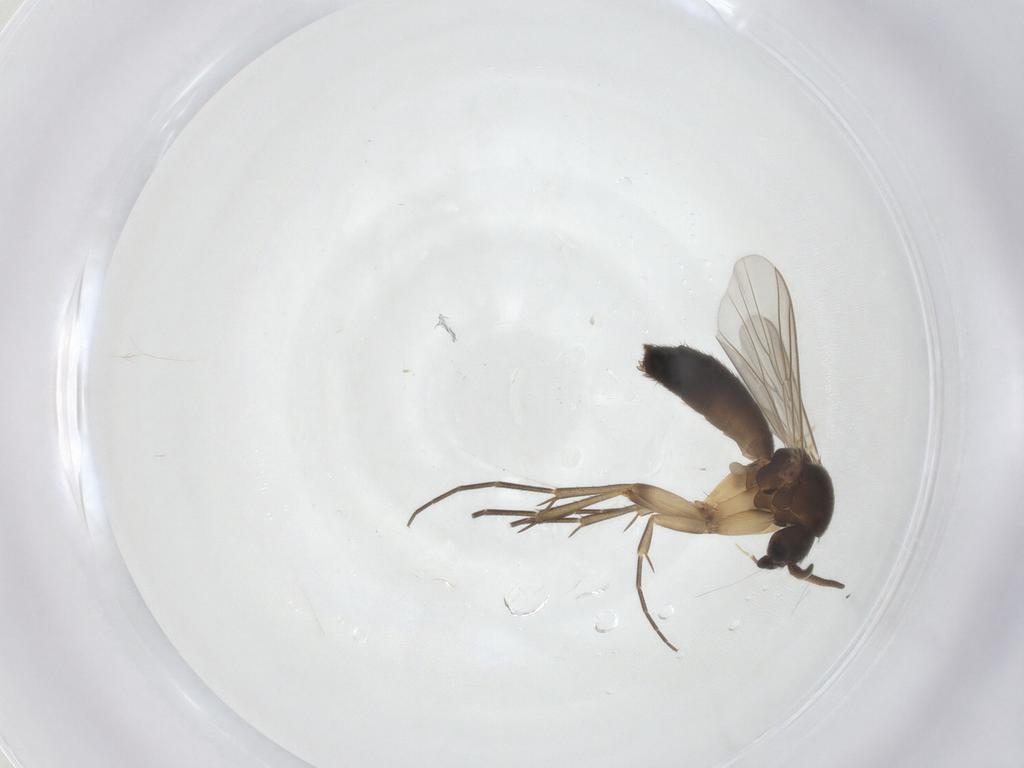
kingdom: Animalia
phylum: Arthropoda
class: Insecta
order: Diptera
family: Mycetophilidae
